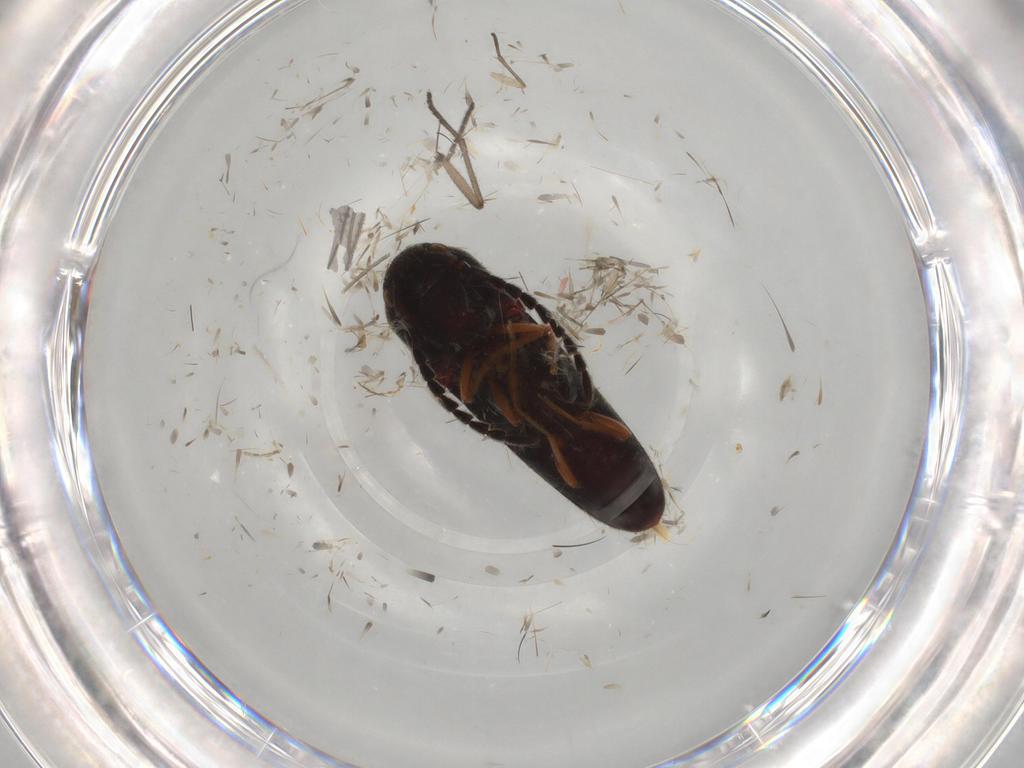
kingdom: Animalia
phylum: Arthropoda
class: Insecta
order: Coleoptera
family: Eucnemidae
